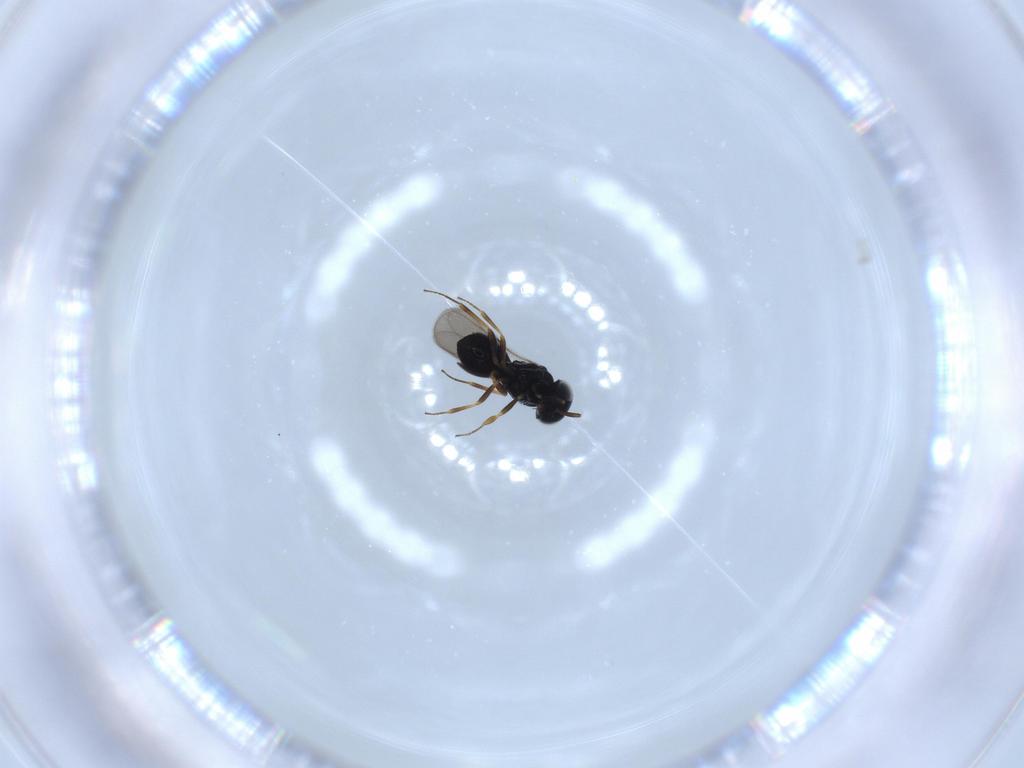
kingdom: Animalia
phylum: Arthropoda
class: Insecta
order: Hymenoptera
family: Scelionidae
